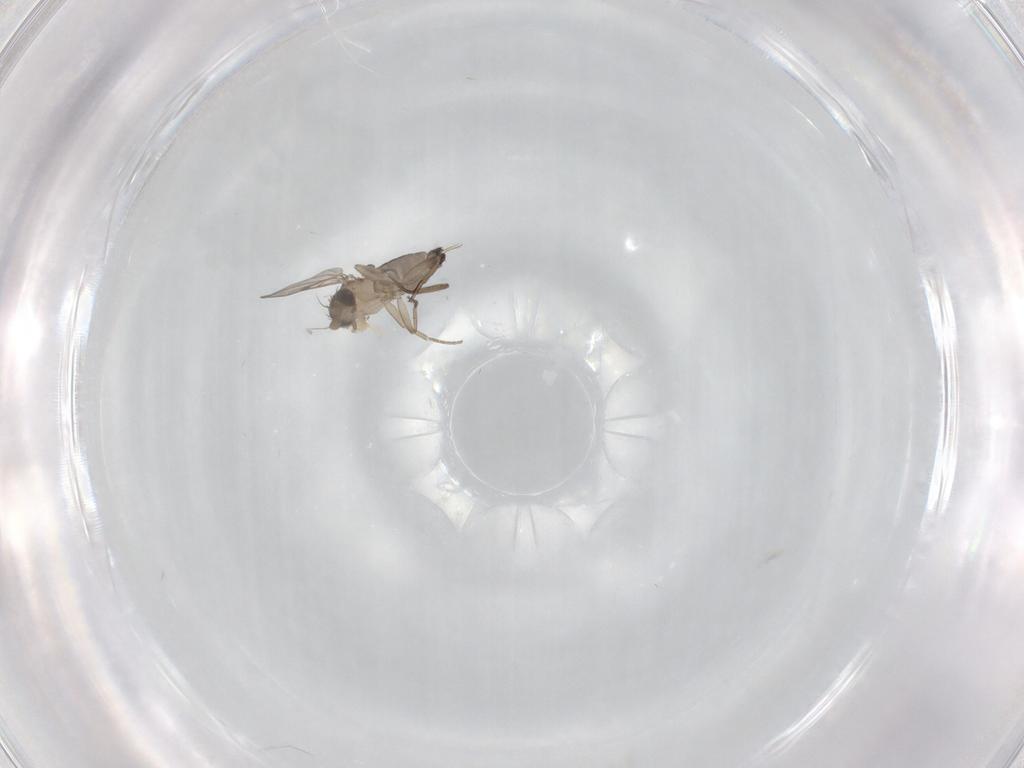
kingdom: Animalia
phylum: Arthropoda
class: Insecta
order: Diptera
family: Phoridae
